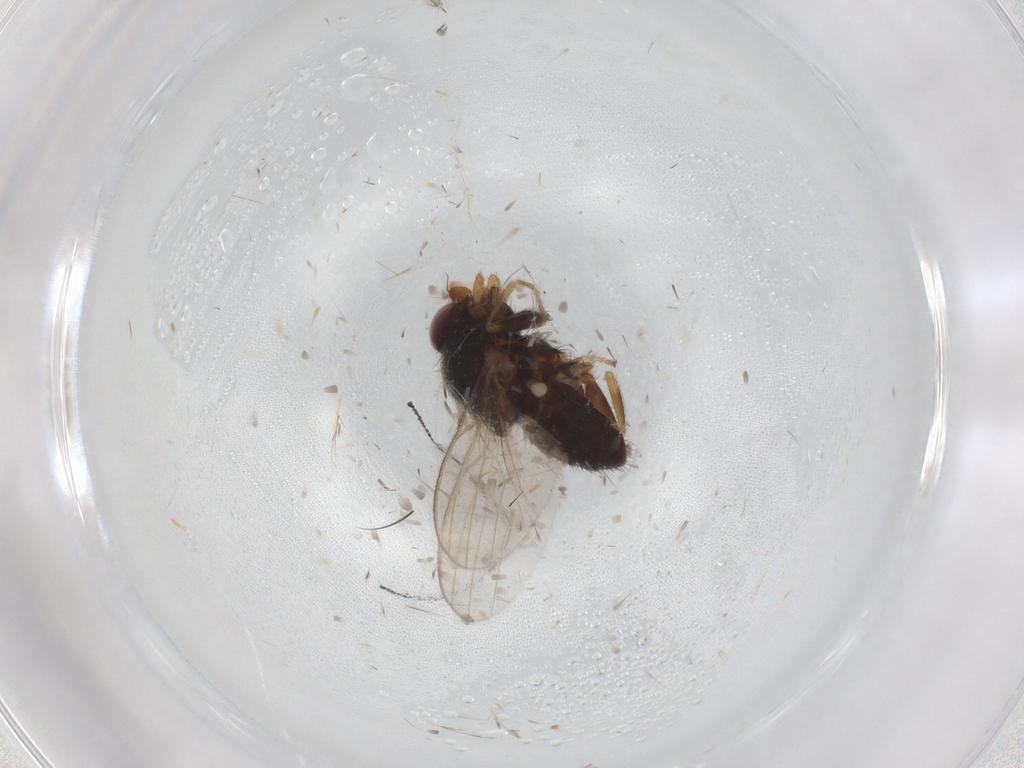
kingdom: Animalia
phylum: Arthropoda
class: Insecta
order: Diptera
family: Milichiidae
